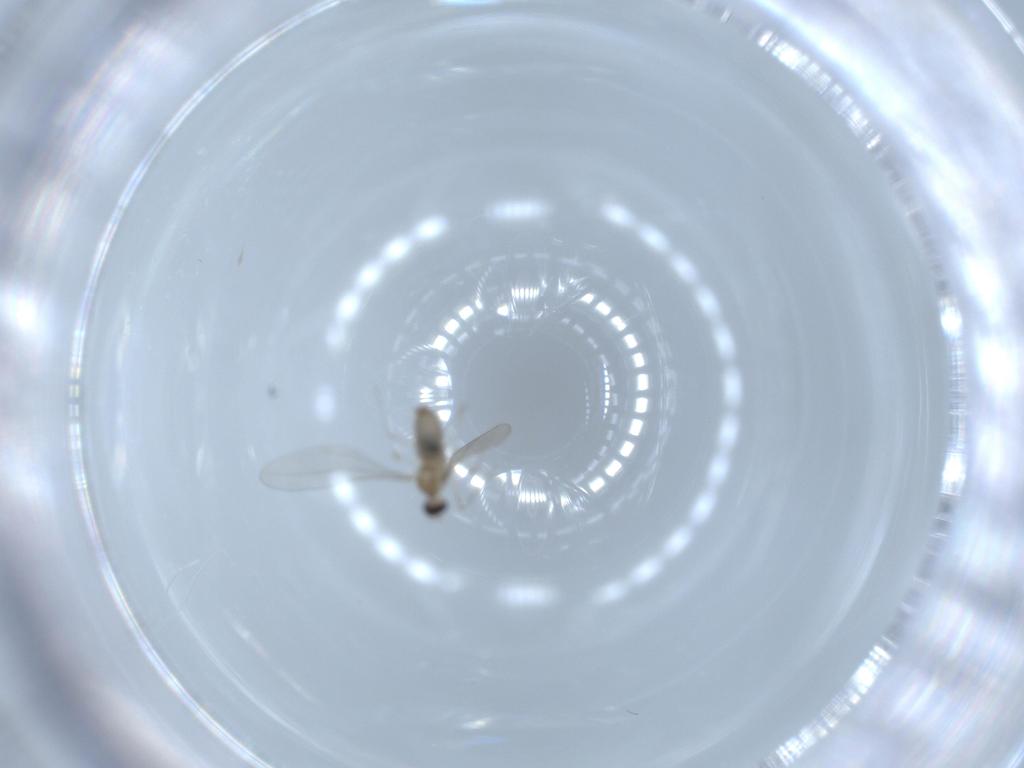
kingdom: Animalia
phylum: Arthropoda
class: Insecta
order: Diptera
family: Cecidomyiidae
